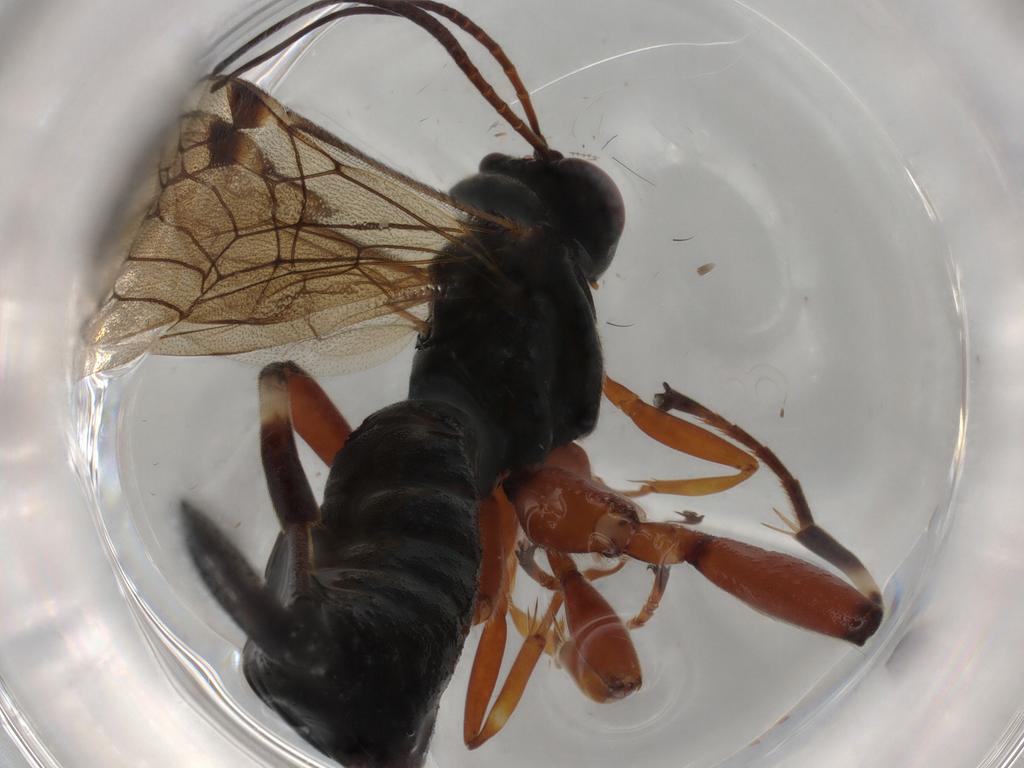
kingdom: Animalia
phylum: Arthropoda
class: Insecta
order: Hymenoptera
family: Ichneumonidae
